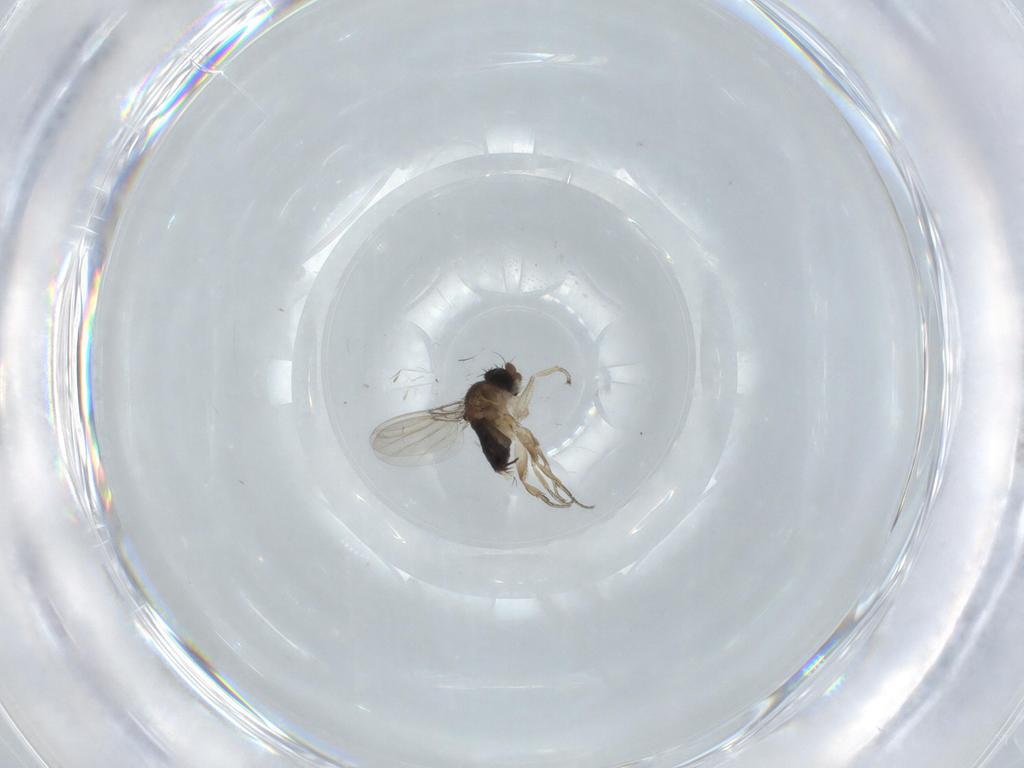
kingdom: Animalia
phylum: Arthropoda
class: Insecta
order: Diptera
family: Phoridae
